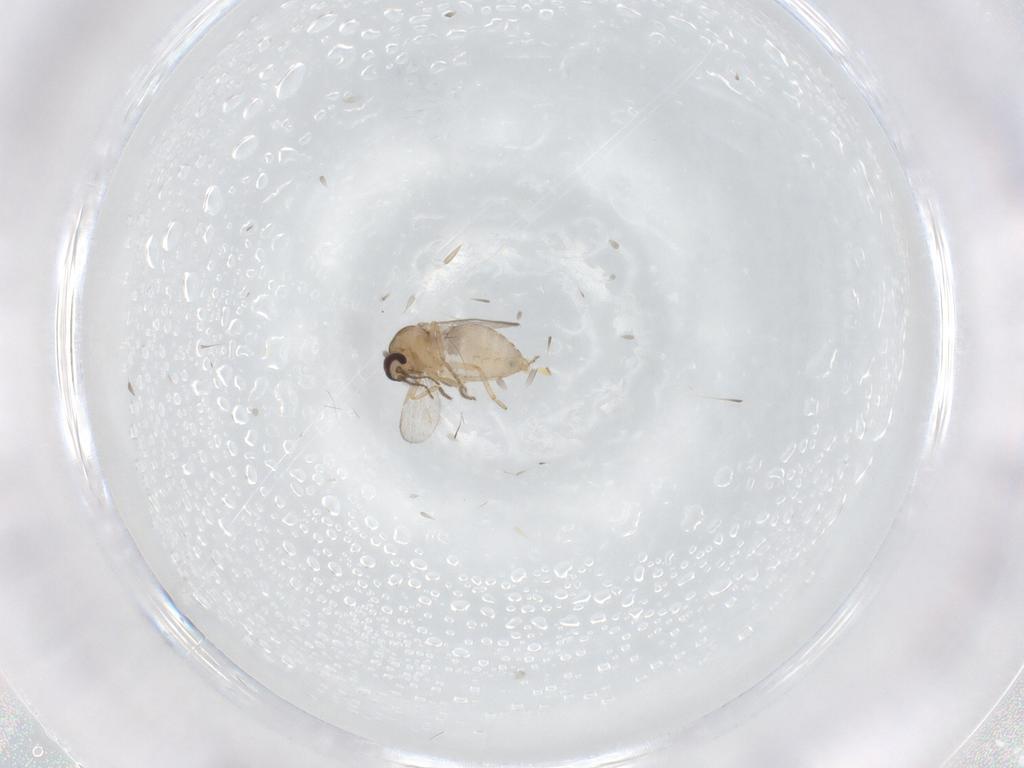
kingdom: Animalia
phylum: Arthropoda
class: Insecta
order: Diptera
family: Ceratopogonidae
